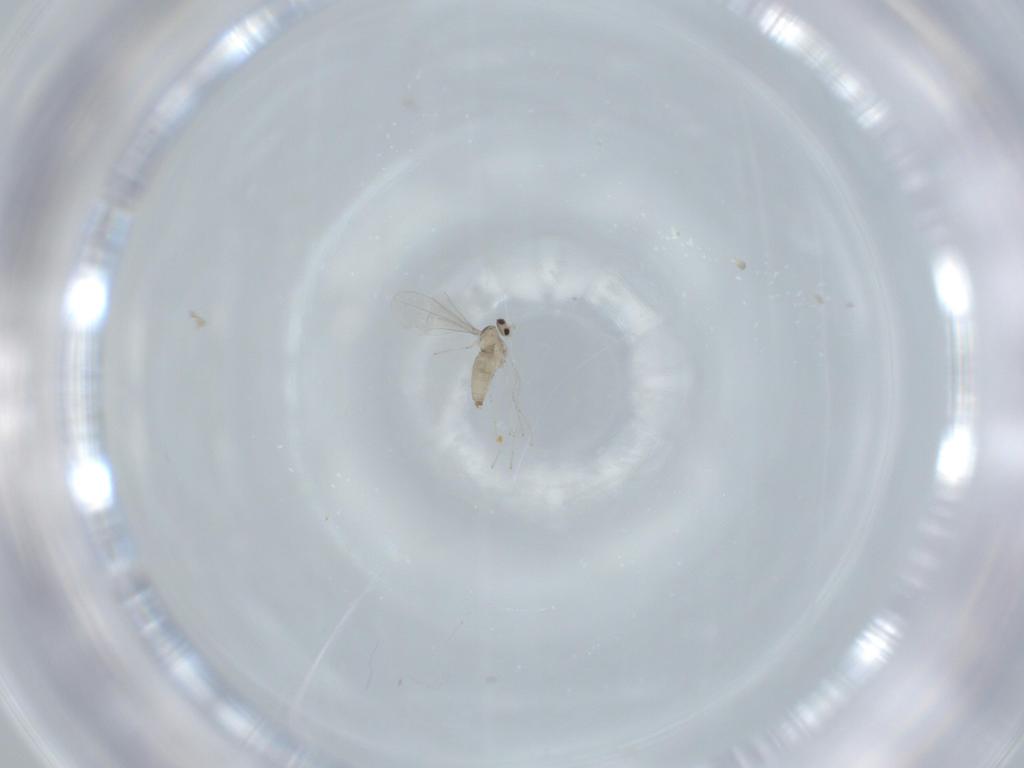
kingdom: Animalia
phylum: Arthropoda
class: Insecta
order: Diptera
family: Cecidomyiidae
